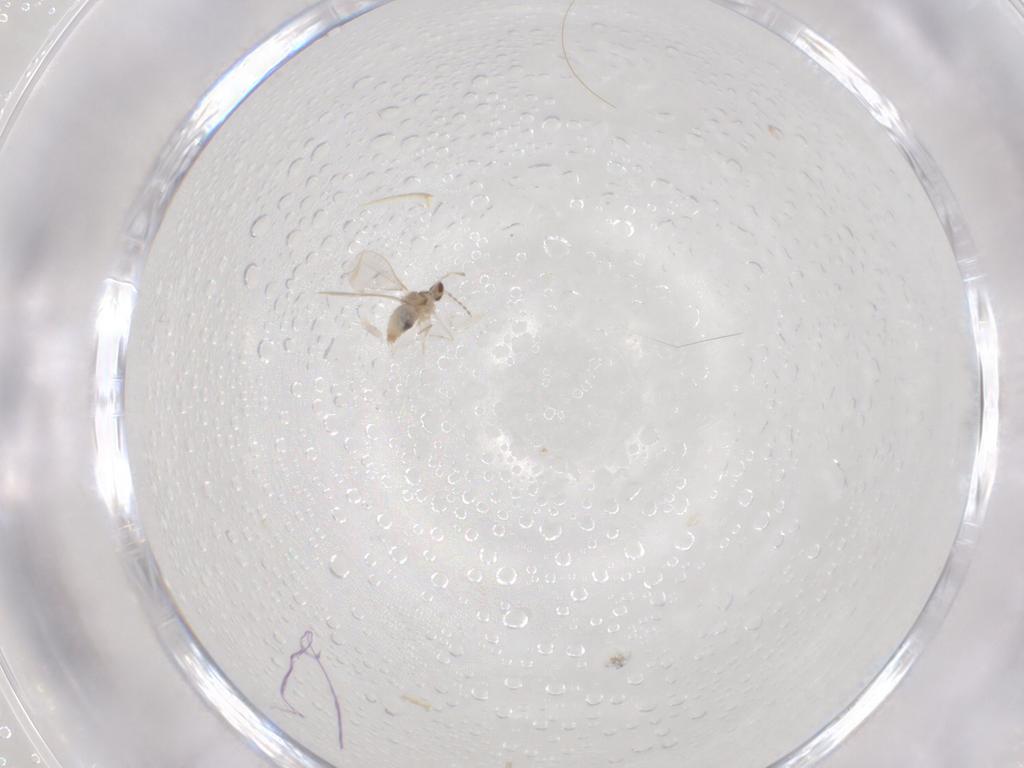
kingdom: Animalia
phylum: Arthropoda
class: Insecta
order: Diptera
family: Cecidomyiidae
